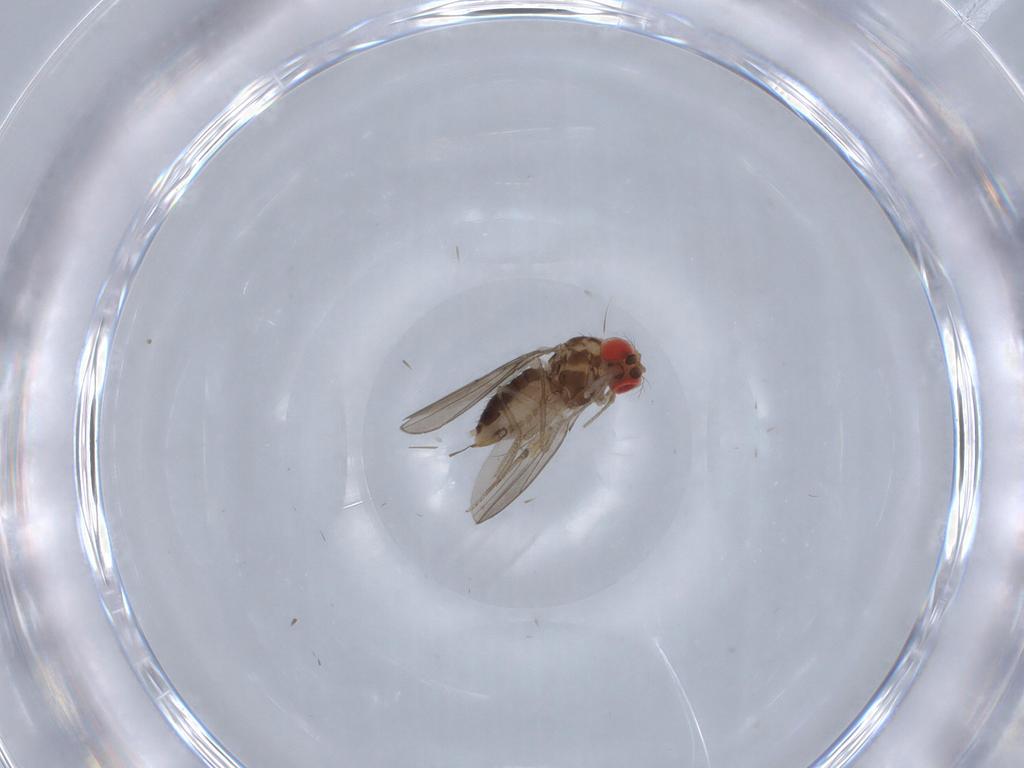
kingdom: Animalia
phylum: Arthropoda
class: Insecta
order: Diptera
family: Drosophilidae
